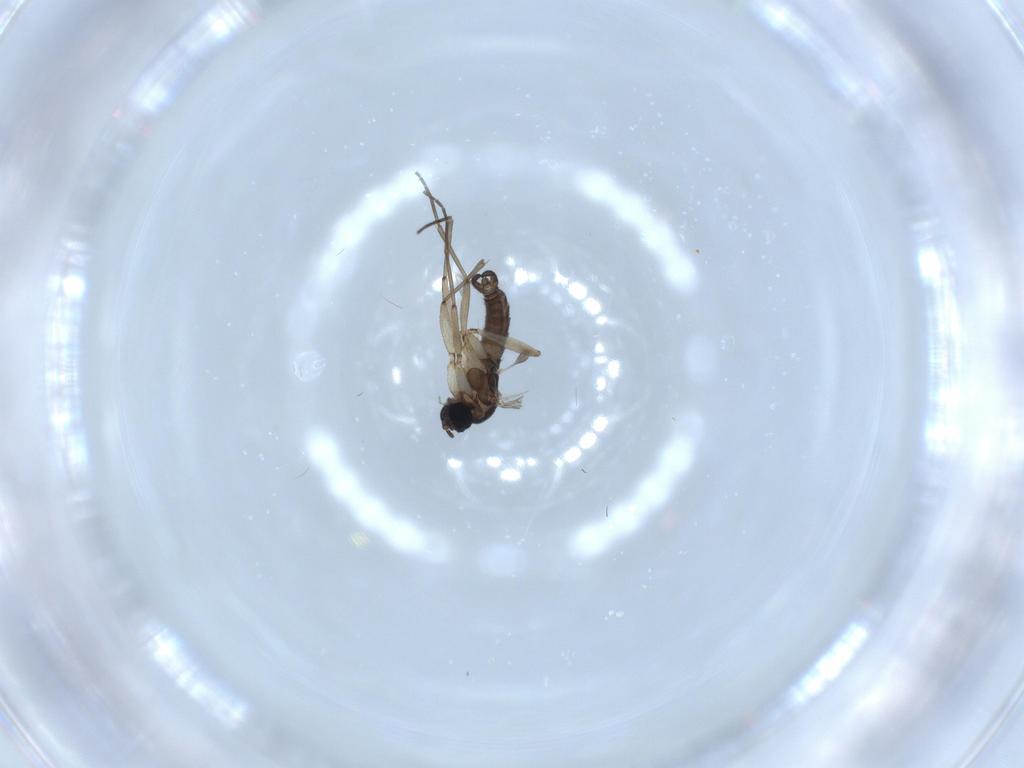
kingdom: Animalia
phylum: Arthropoda
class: Insecta
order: Diptera
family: Sciaridae
